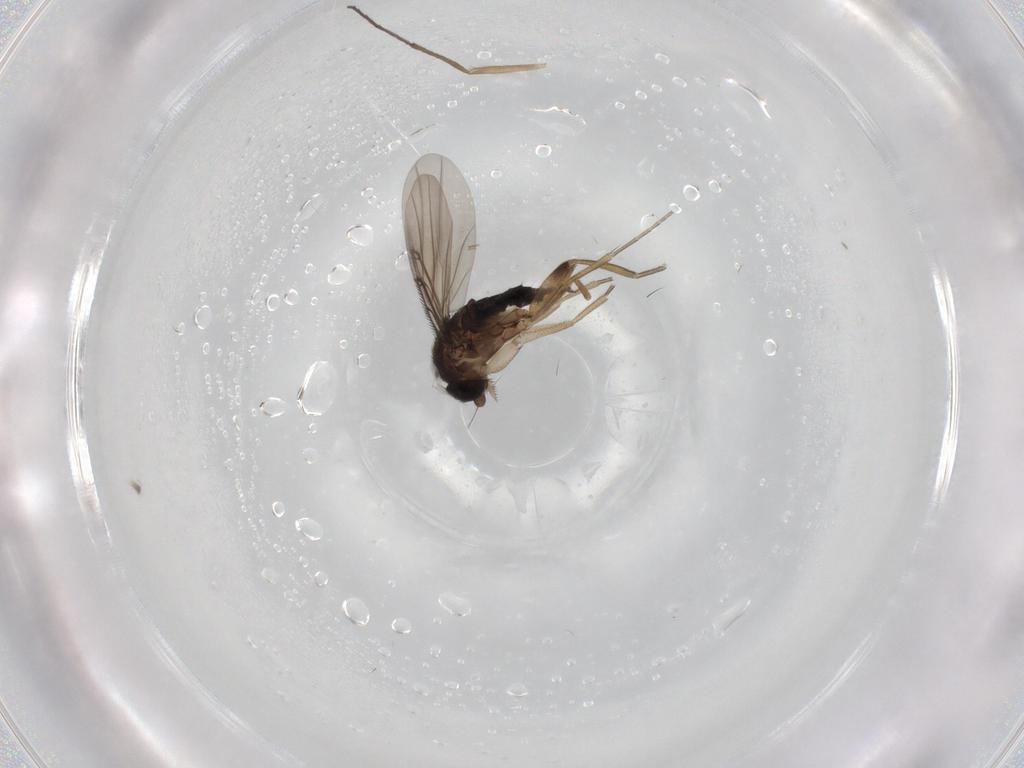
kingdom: Animalia
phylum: Arthropoda
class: Insecta
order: Diptera
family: Phoridae
